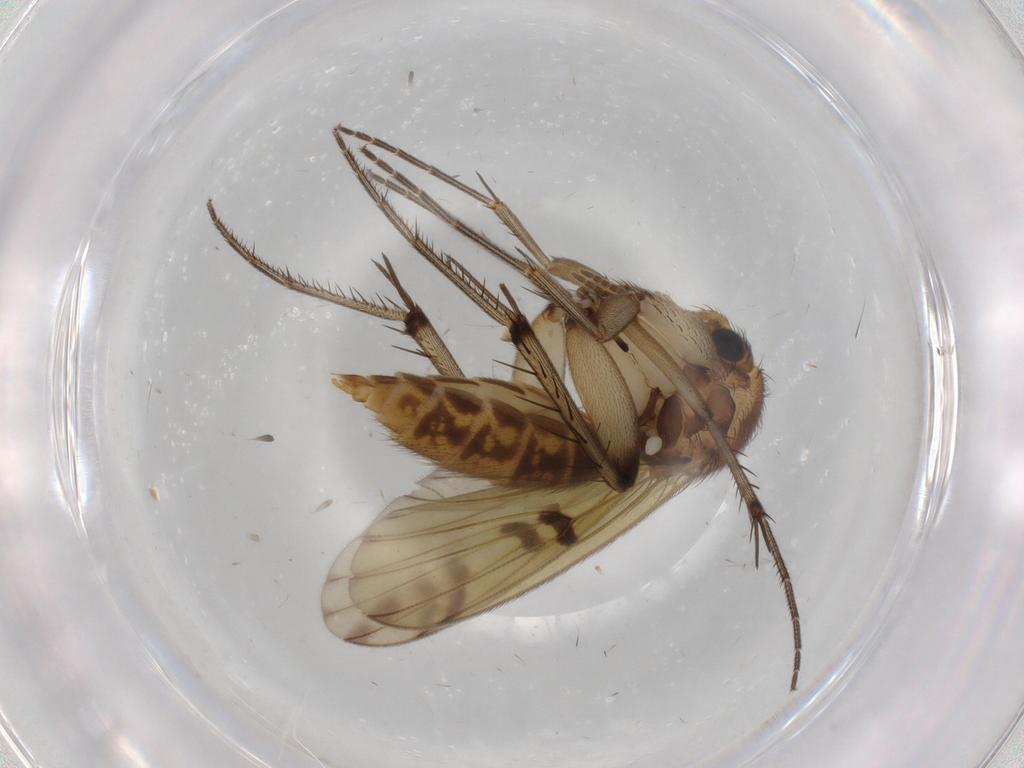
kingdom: Animalia
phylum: Arthropoda
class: Insecta
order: Diptera
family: Mycetophilidae
